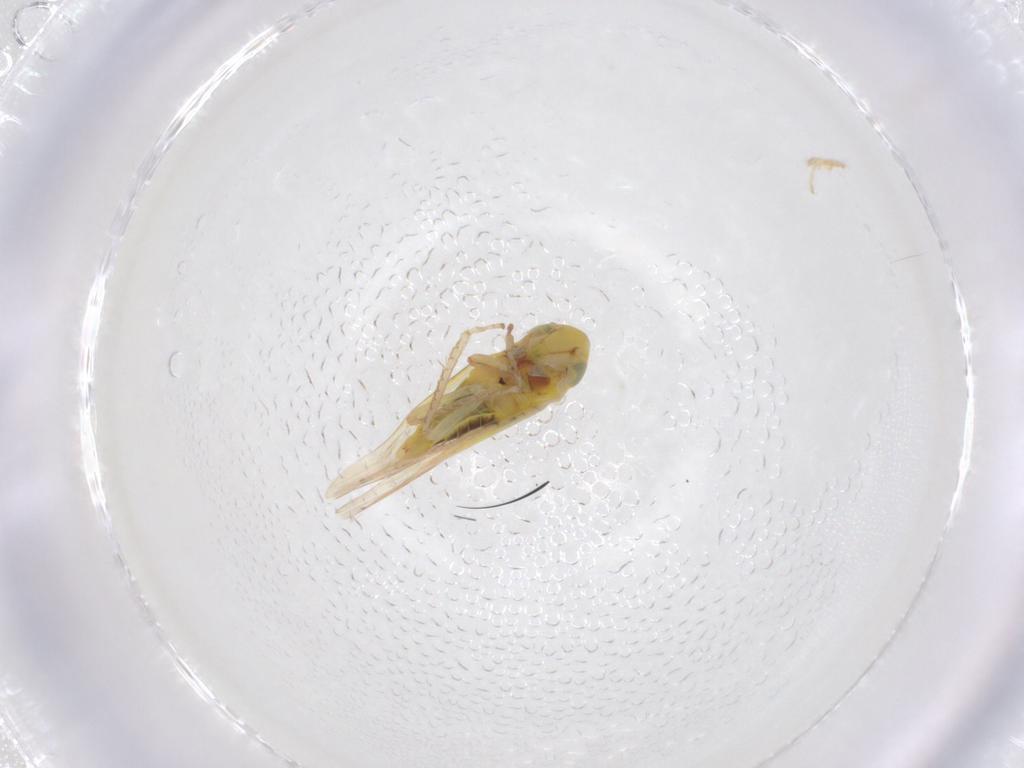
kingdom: Animalia
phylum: Arthropoda
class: Insecta
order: Hemiptera
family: Cicadellidae
